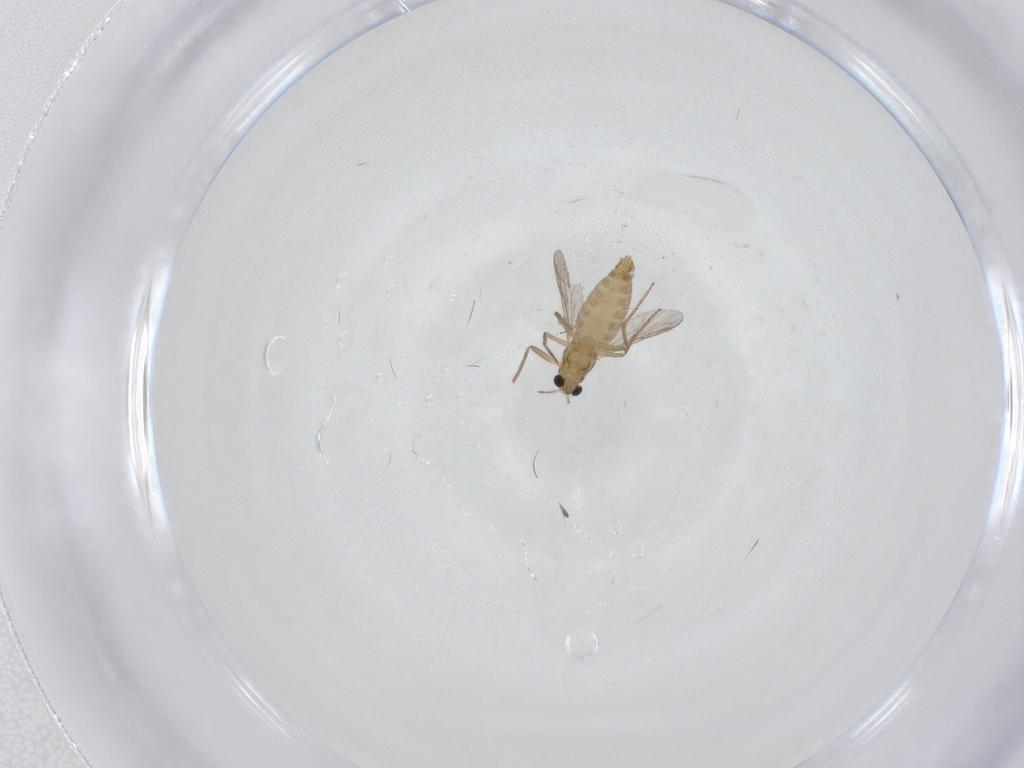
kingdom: Animalia
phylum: Arthropoda
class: Insecta
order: Diptera
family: Chironomidae
